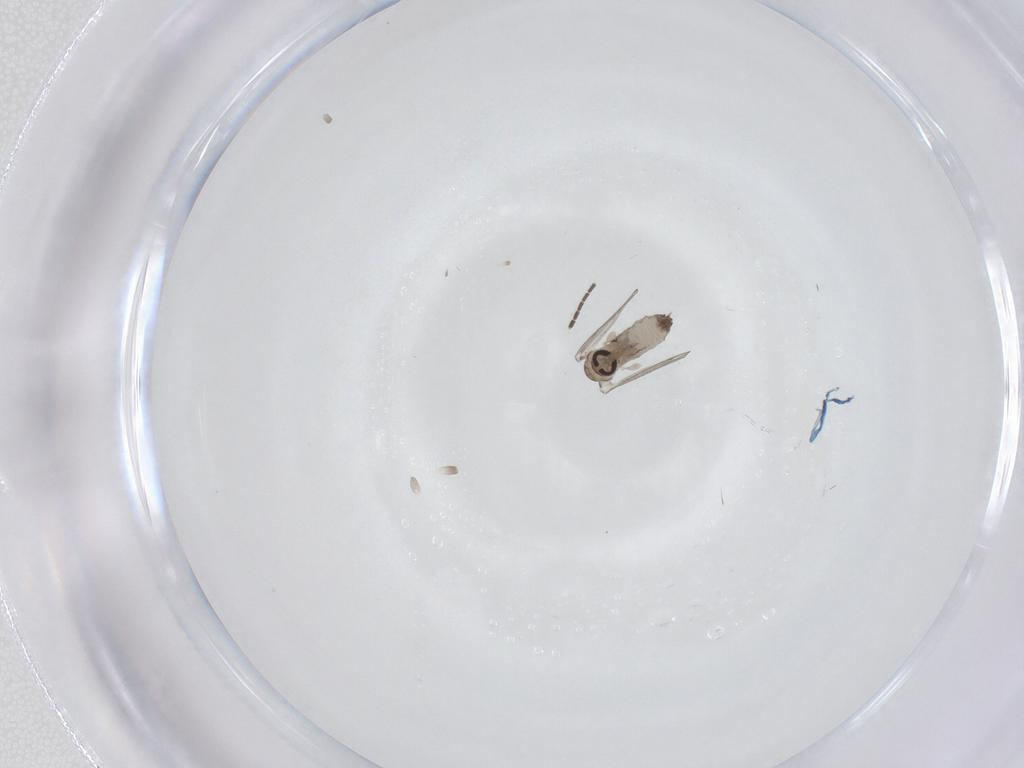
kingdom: Animalia
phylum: Arthropoda
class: Insecta
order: Diptera
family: Psychodidae
